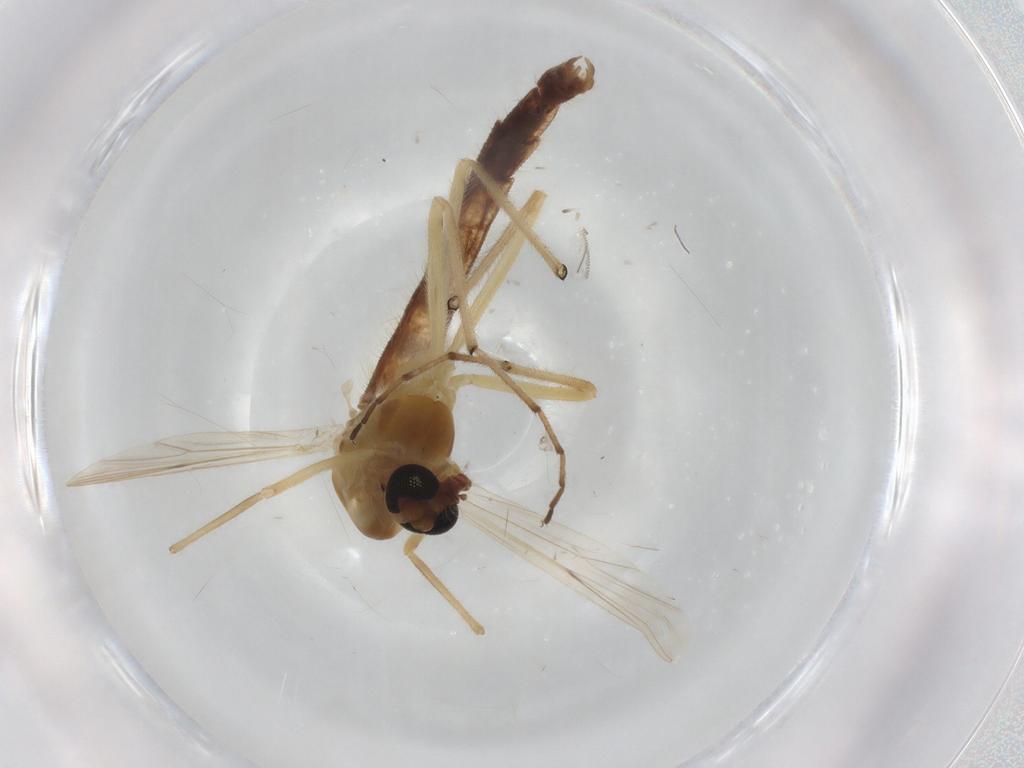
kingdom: Animalia
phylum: Arthropoda
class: Insecta
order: Diptera
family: Chironomidae
